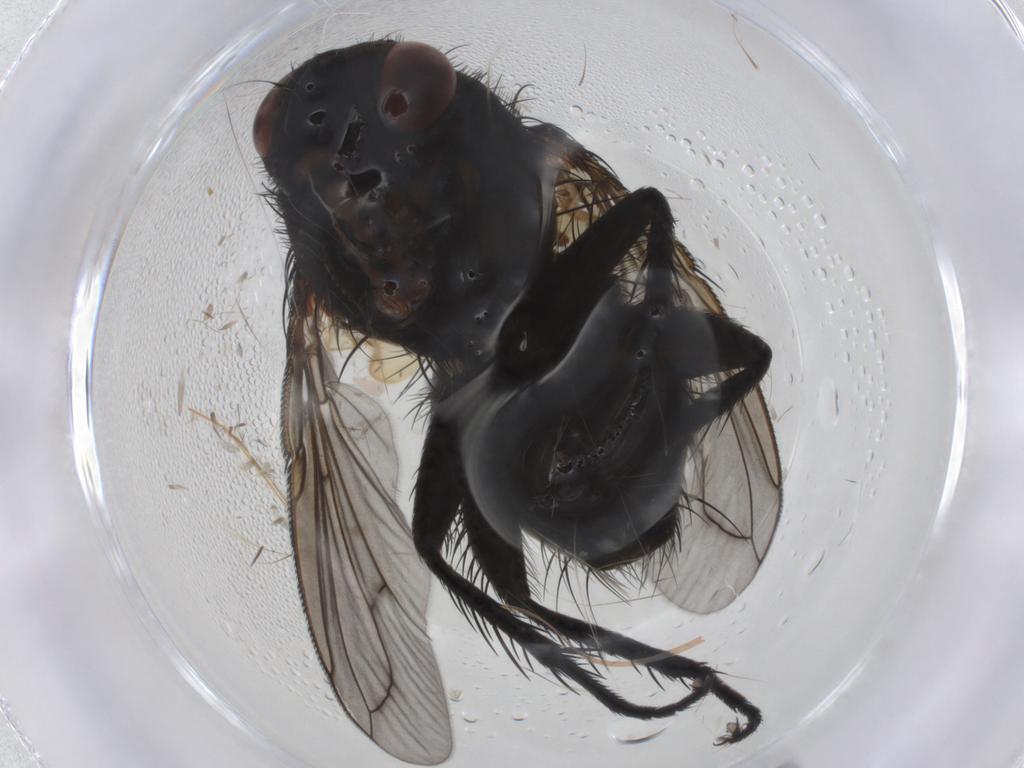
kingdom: Animalia
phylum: Arthropoda
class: Insecta
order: Diptera
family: Tachinidae
